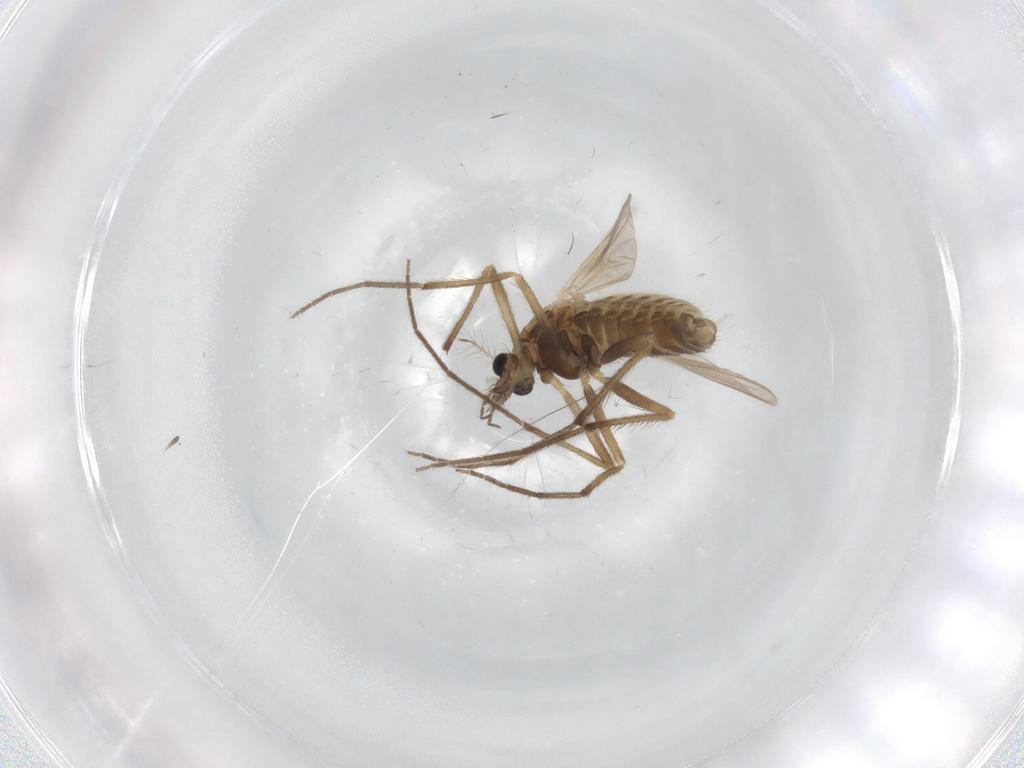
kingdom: Animalia
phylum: Arthropoda
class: Insecta
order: Diptera
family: Chironomidae
